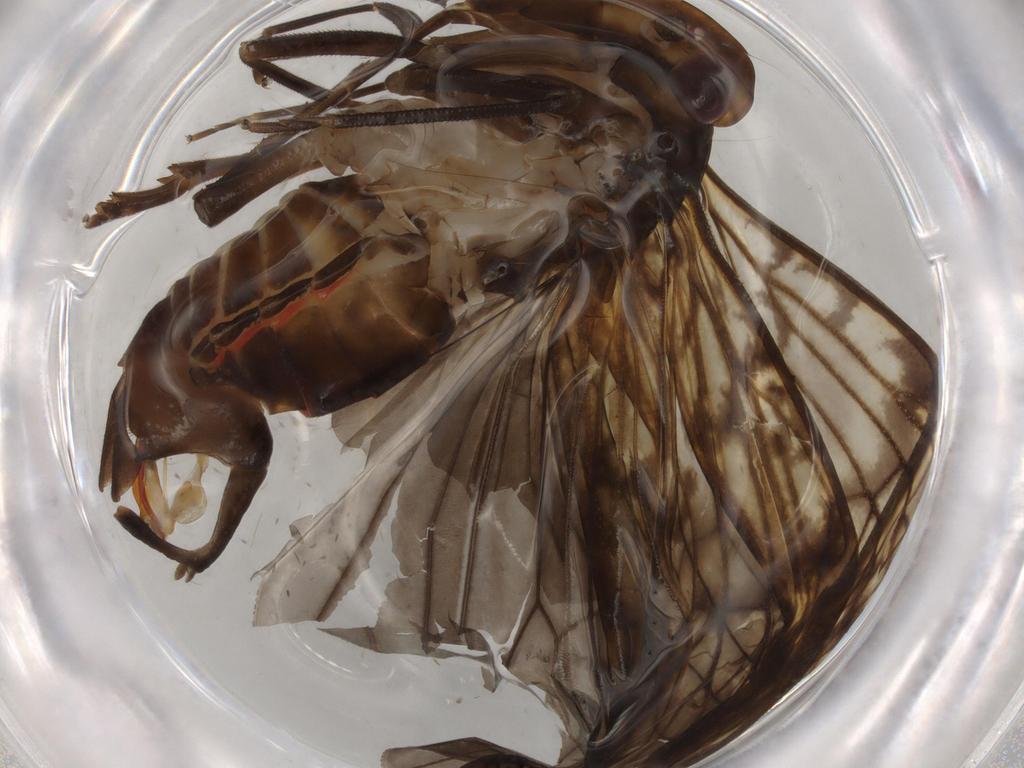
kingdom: Animalia
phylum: Arthropoda
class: Insecta
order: Hemiptera
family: Cixiidae
